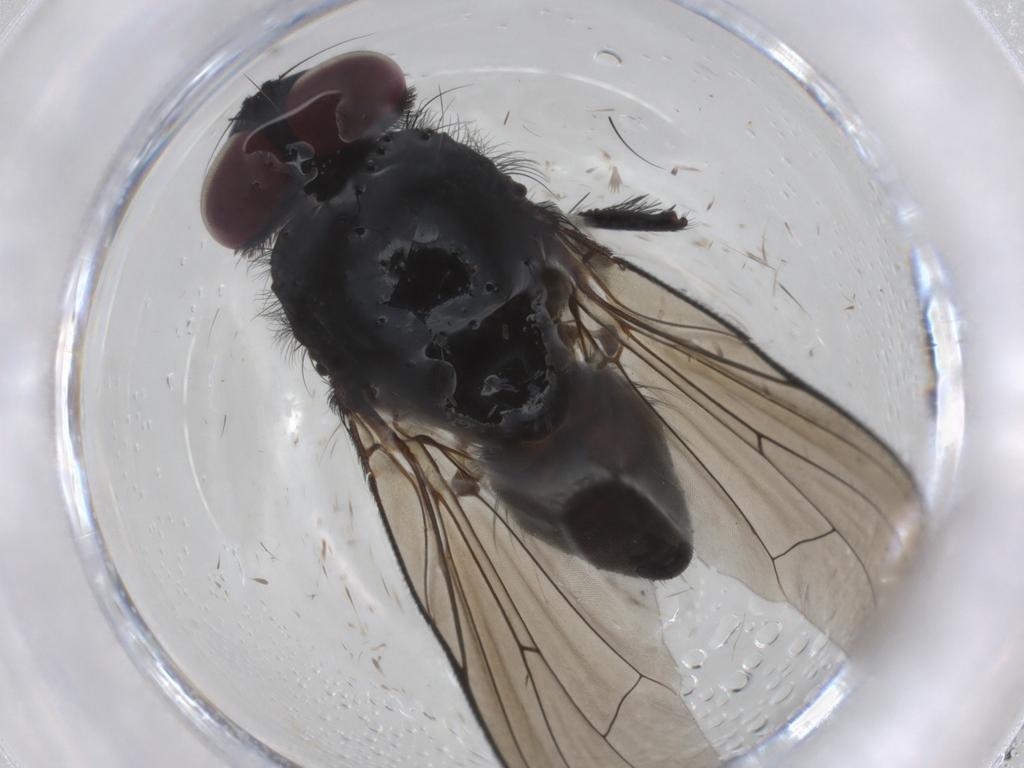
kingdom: Animalia
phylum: Arthropoda
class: Insecta
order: Diptera
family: Fannia
